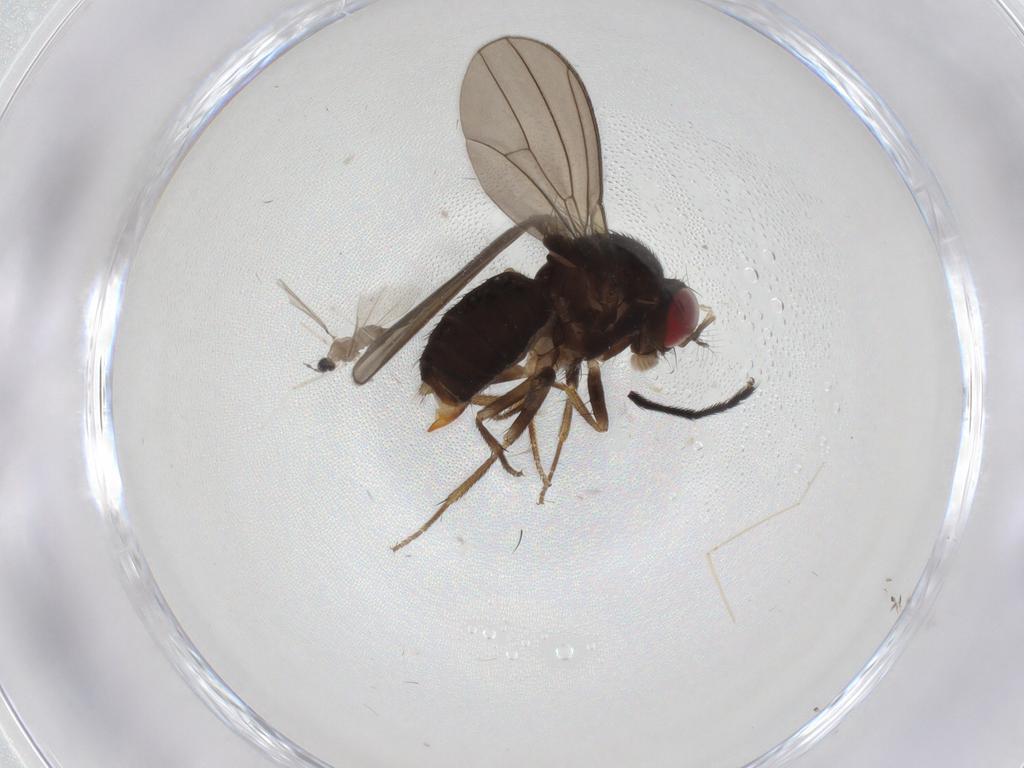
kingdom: Animalia
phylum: Arthropoda
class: Insecta
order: Diptera
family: Drosophilidae
